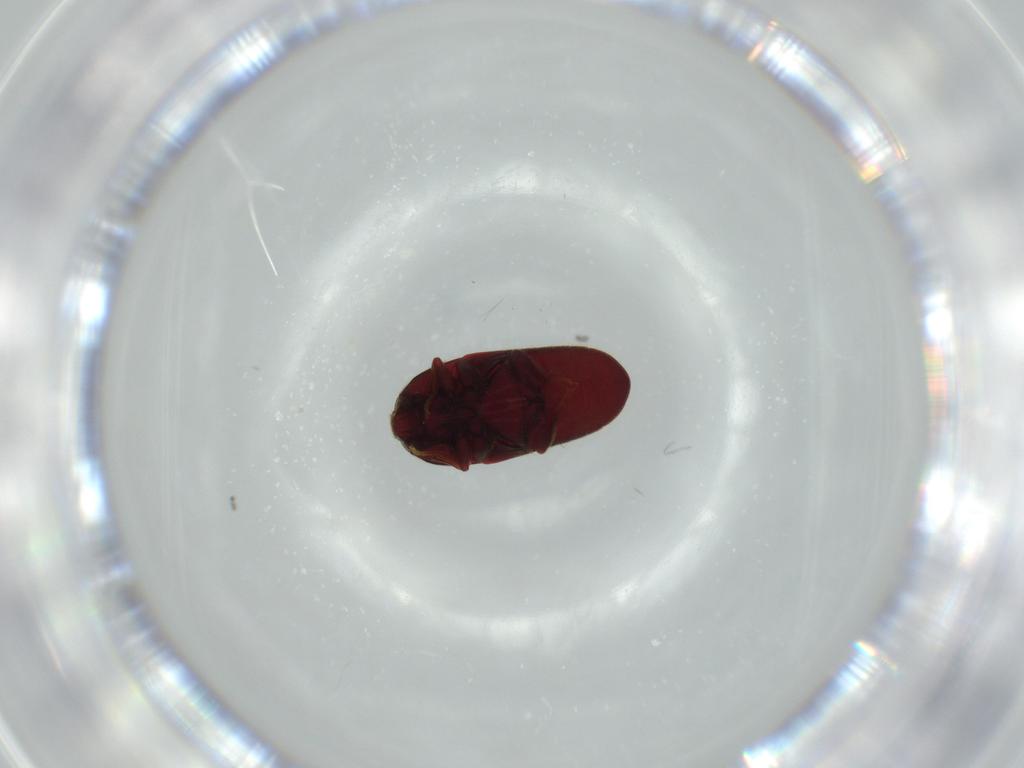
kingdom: Animalia
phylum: Arthropoda
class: Insecta
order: Coleoptera
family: Throscidae
